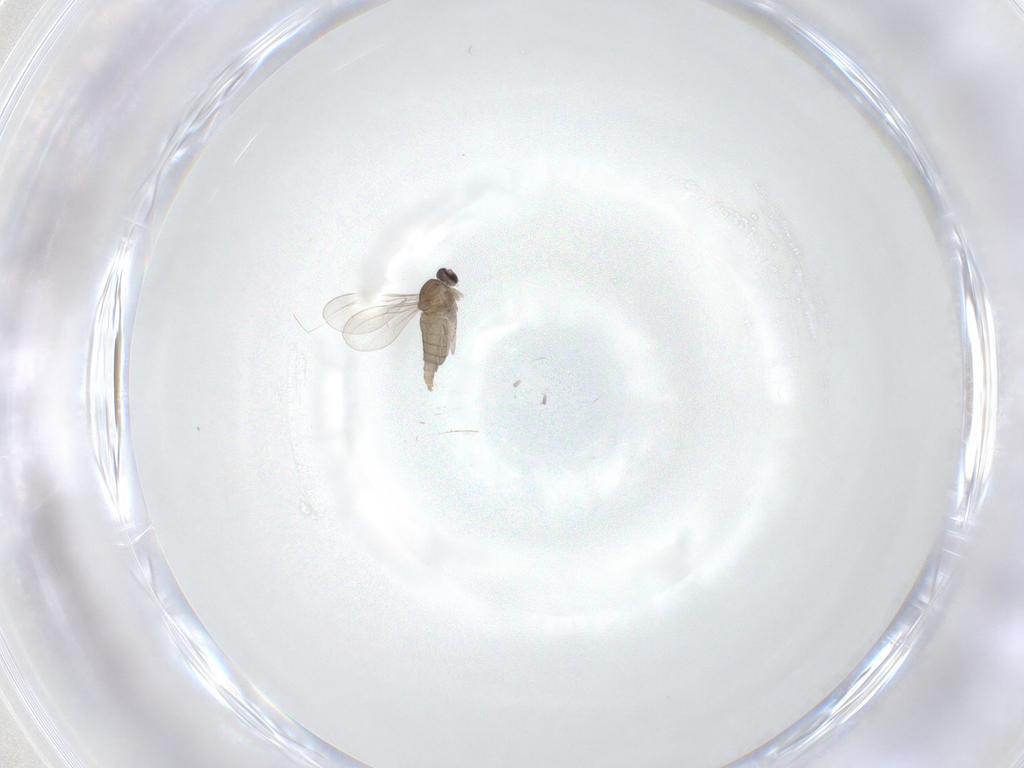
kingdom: Animalia
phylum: Arthropoda
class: Insecta
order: Diptera
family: Cecidomyiidae
